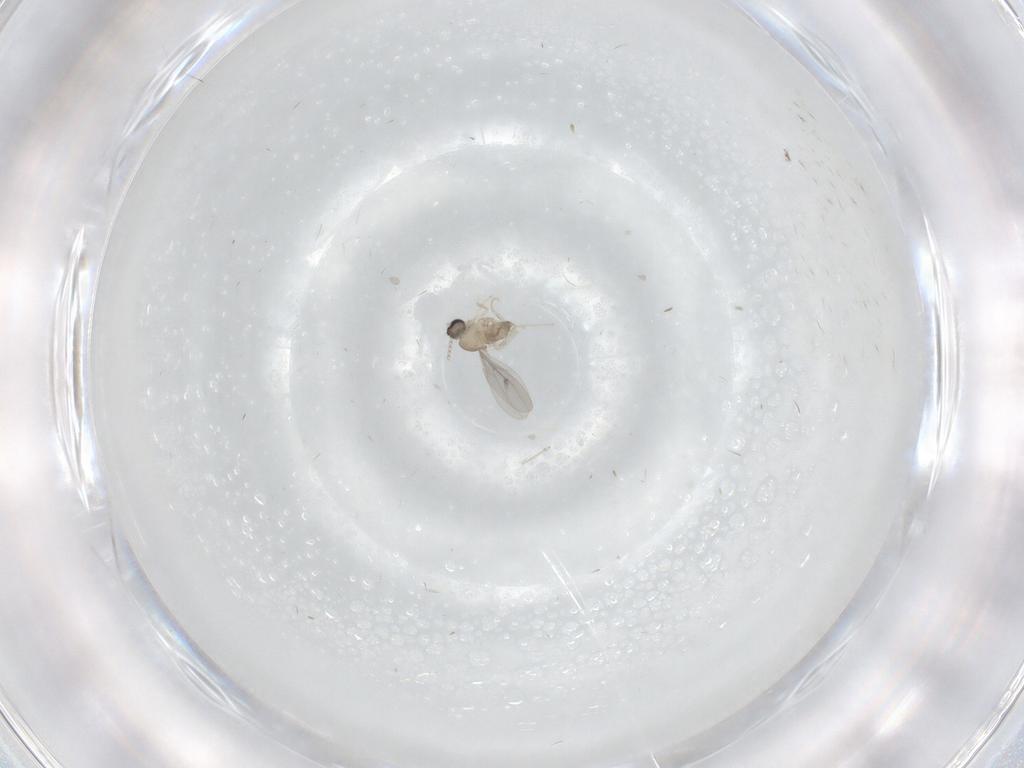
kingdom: Animalia
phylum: Arthropoda
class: Insecta
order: Diptera
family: Cecidomyiidae
